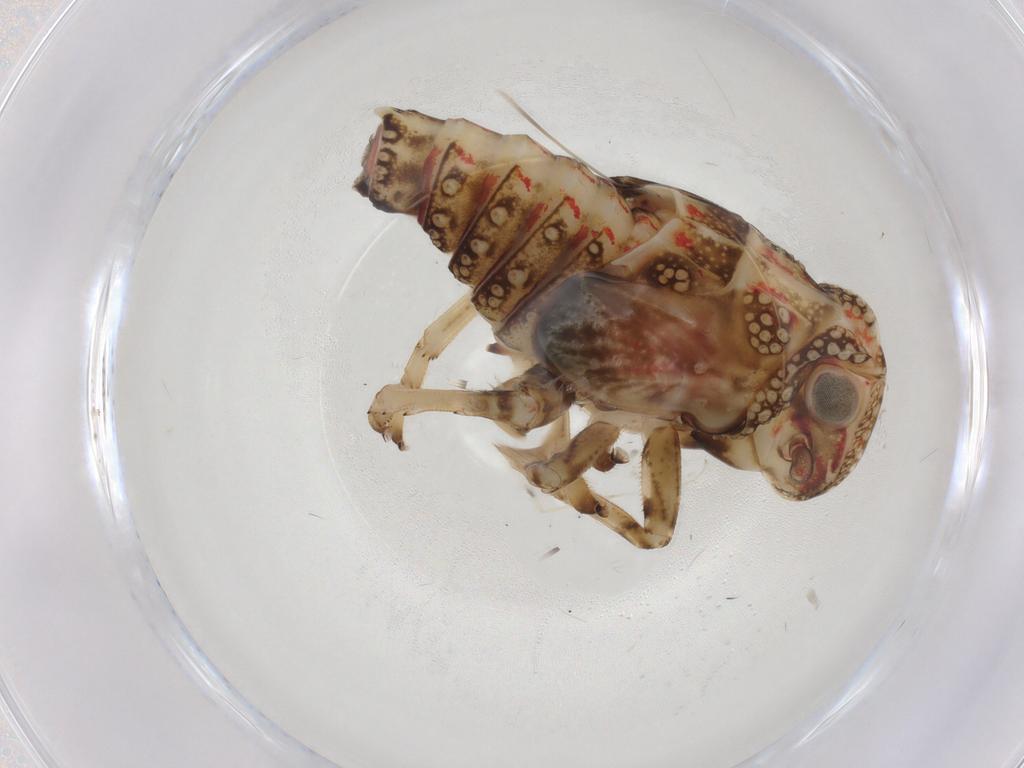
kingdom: Animalia
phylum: Arthropoda
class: Insecta
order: Hemiptera
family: Tropiduchidae
